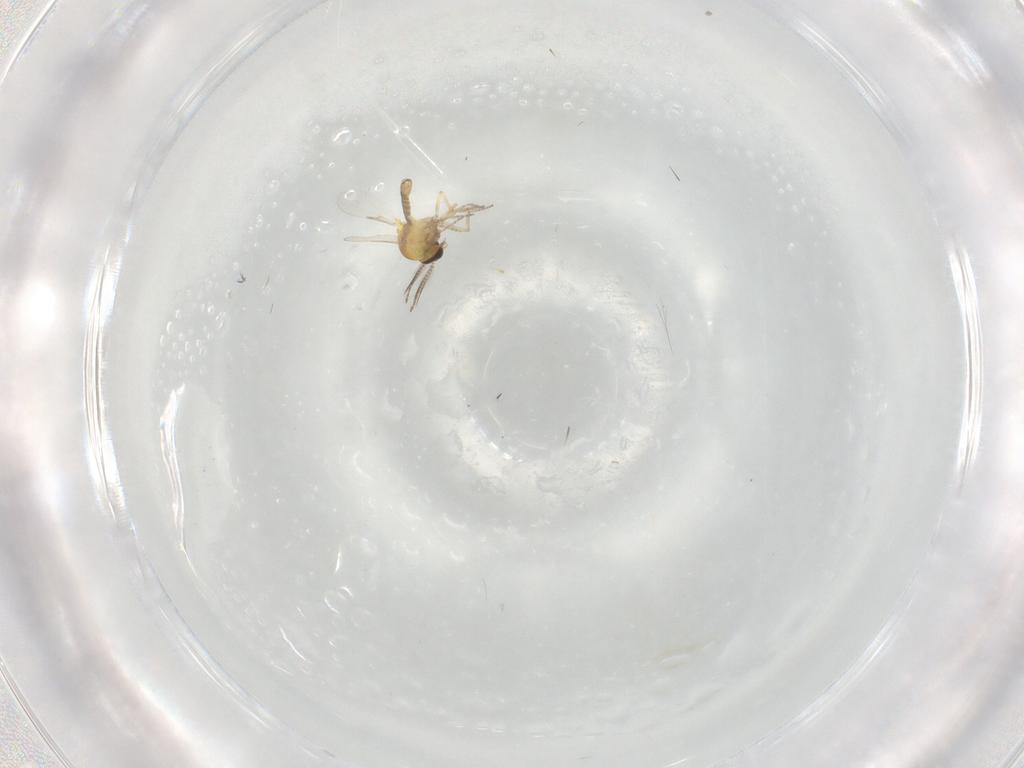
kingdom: Animalia
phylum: Arthropoda
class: Insecta
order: Diptera
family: Ceratopogonidae
